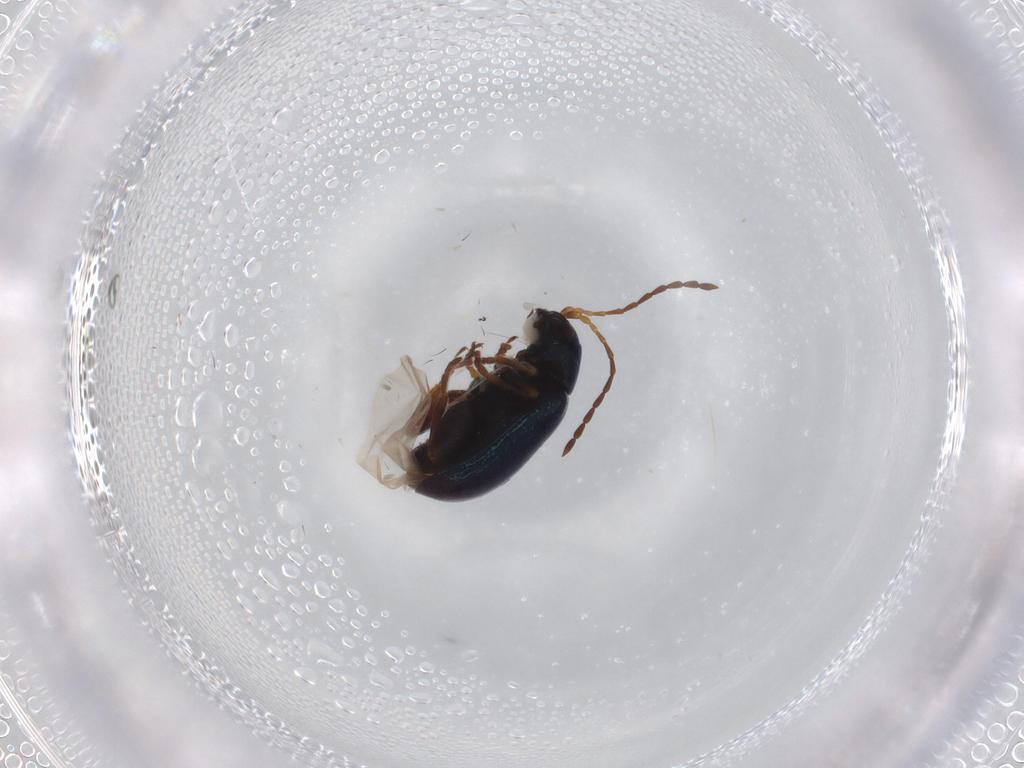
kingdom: Animalia
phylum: Arthropoda
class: Insecta
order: Coleoptera
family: Chrysomelidae
